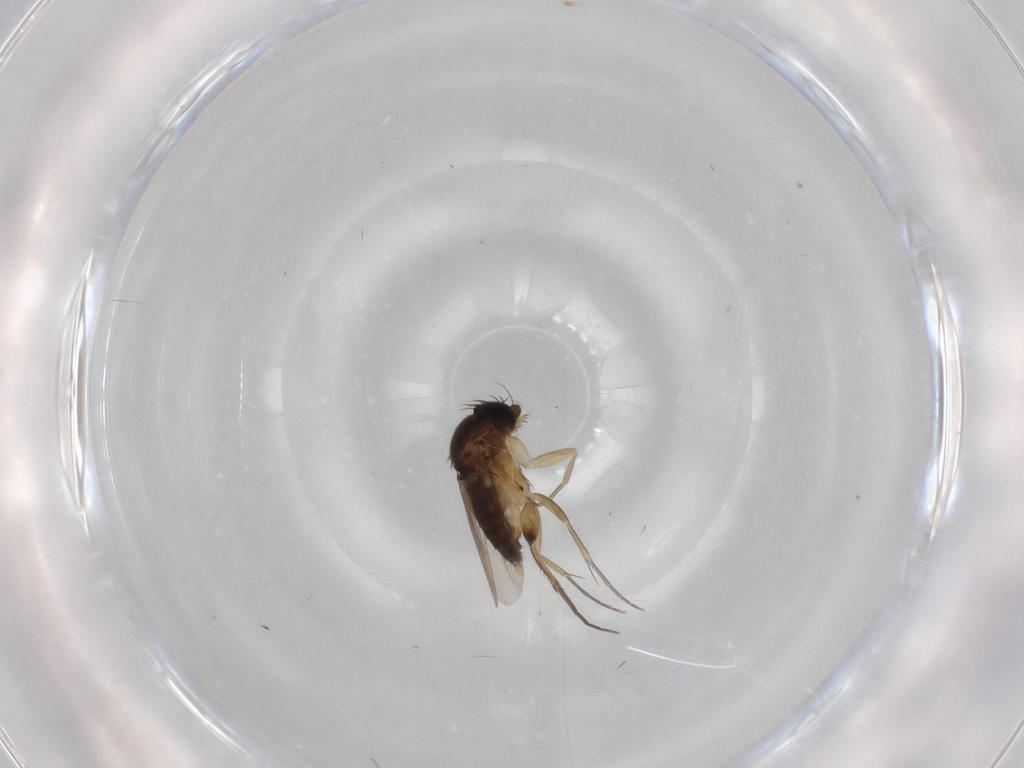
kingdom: Animalia
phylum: Arthropoda
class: Insecta
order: Diptera
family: Phoridae
